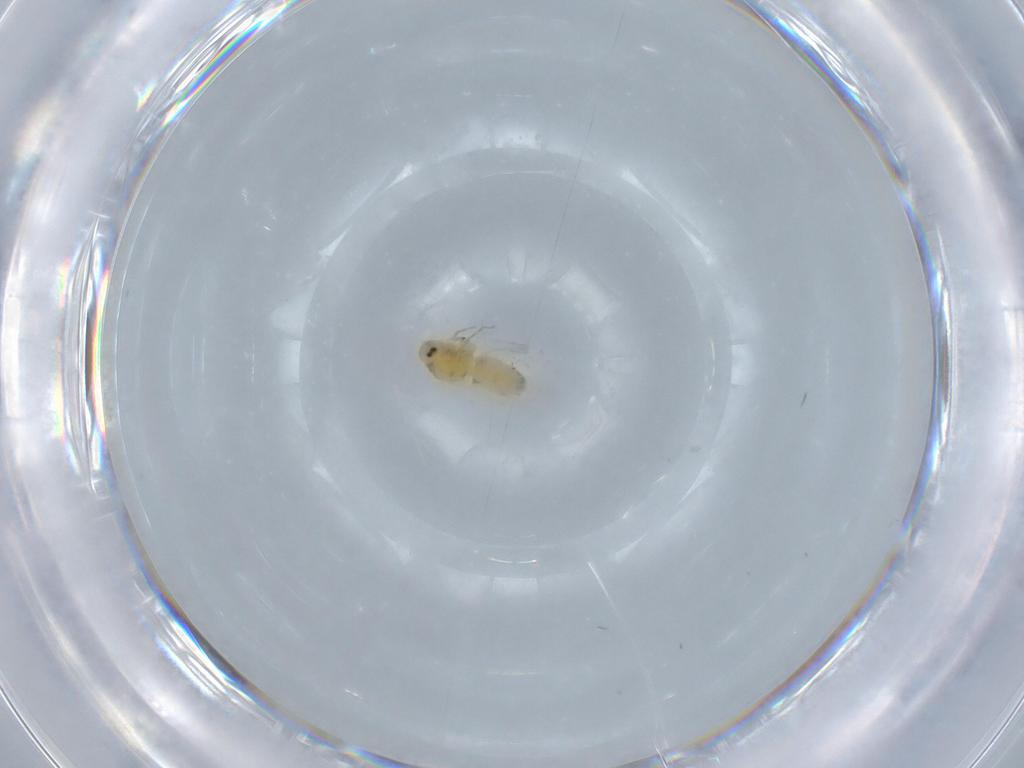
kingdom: Animalia
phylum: Arthropoda
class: Insecta
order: Hemiptera
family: Aleyrodidae
